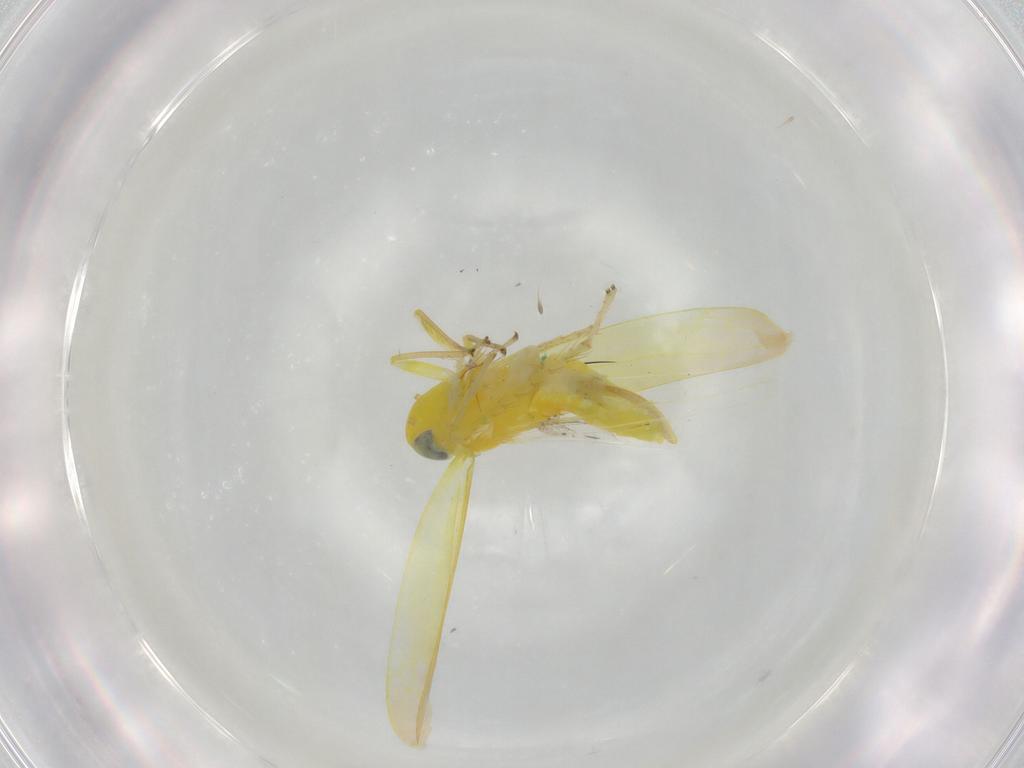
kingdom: Animalia
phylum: Arthropoda
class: Insecta
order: Hemiptera
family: Cicadellidae
